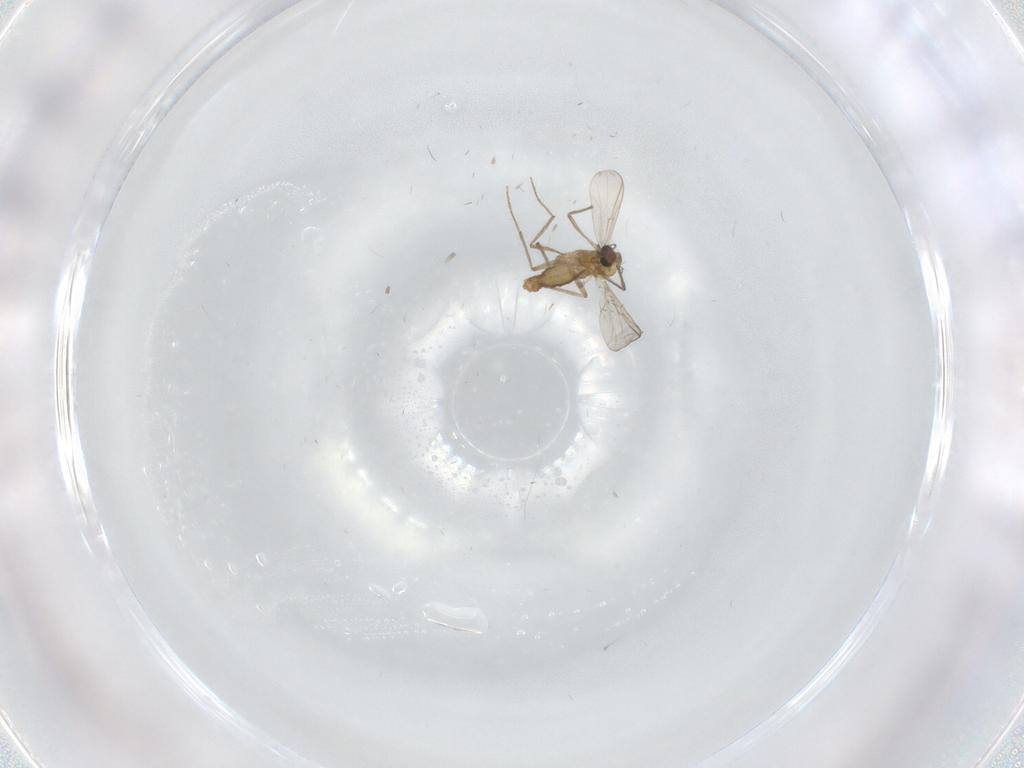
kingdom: Animalia
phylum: Arthropoda
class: Insecta
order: Diptera
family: Chironomidae
